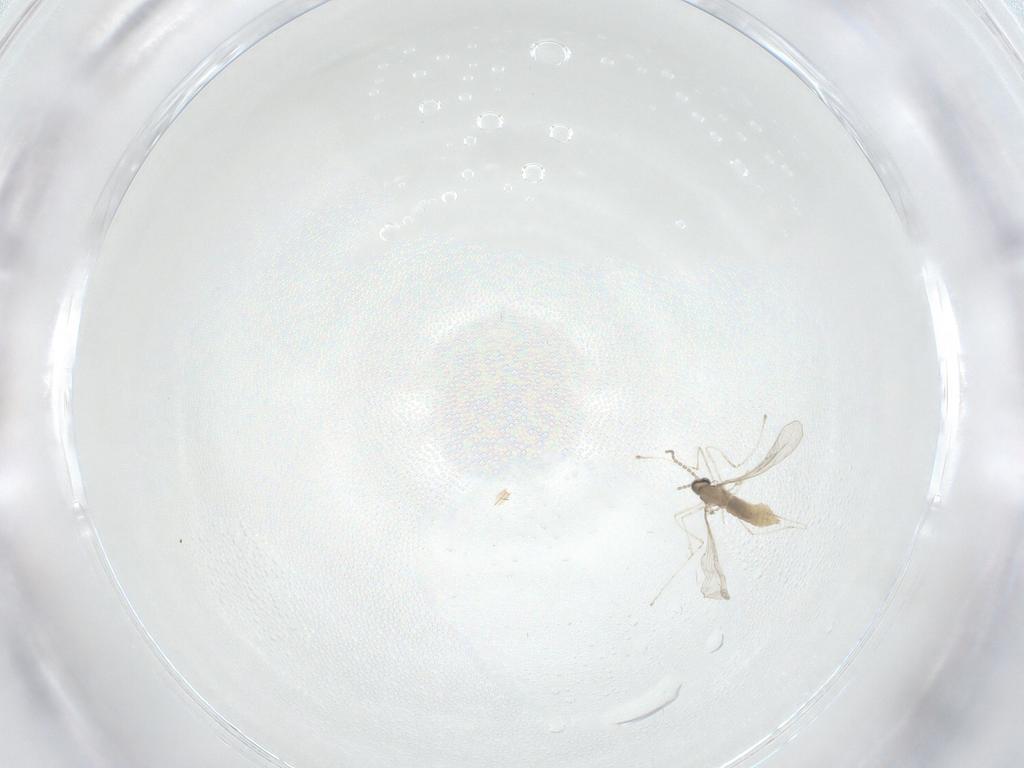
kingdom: Animalia
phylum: Arthropoda
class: Insecta
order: Diptera
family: Cecidomyiidae
